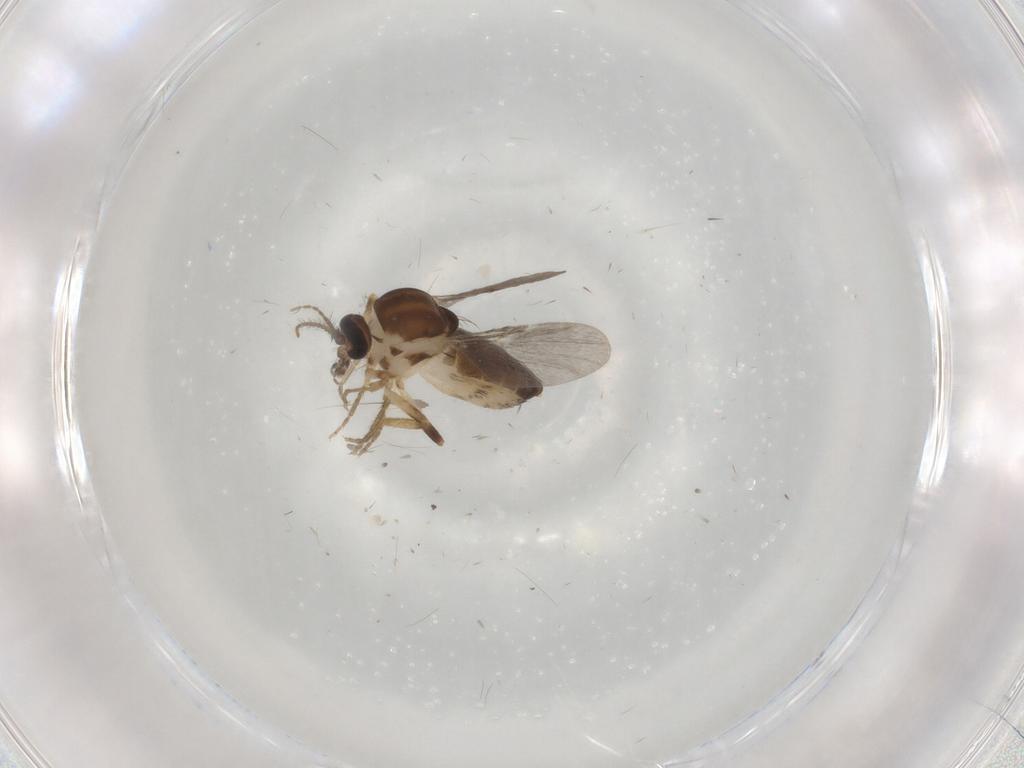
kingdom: Animalia
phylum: Arthropoda
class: Insecta
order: Diptera
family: Ceratopogonidae
